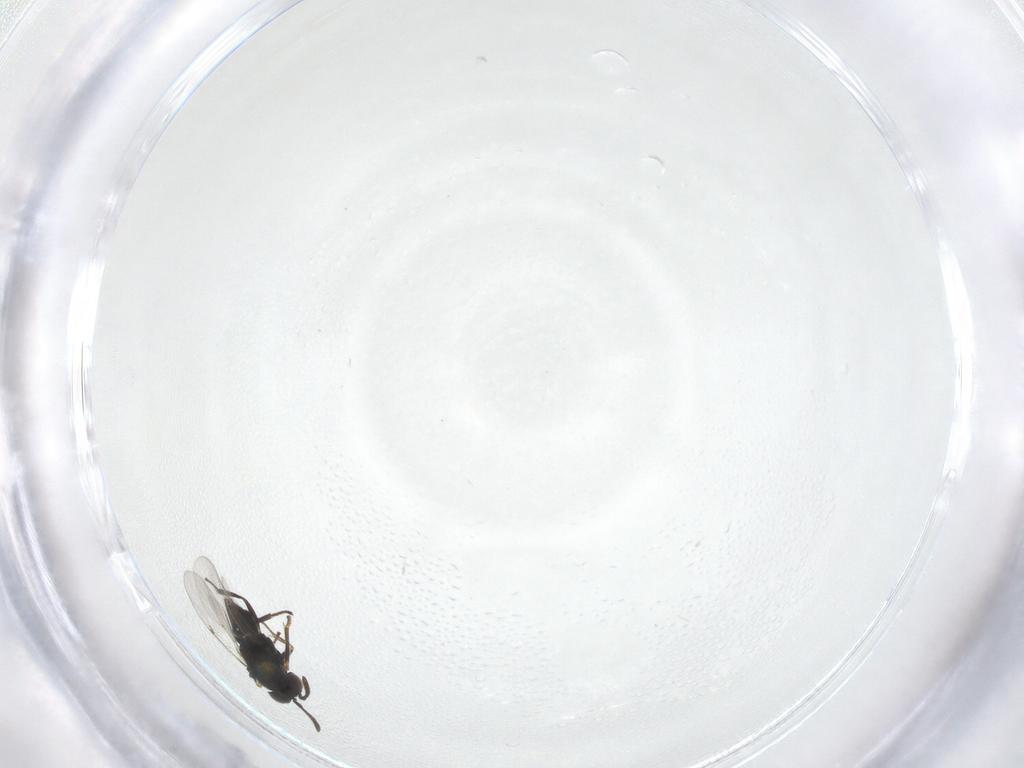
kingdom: Animalia
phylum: Arthropoda
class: Insecta
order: Hymenoptera
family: Encyrtidae
